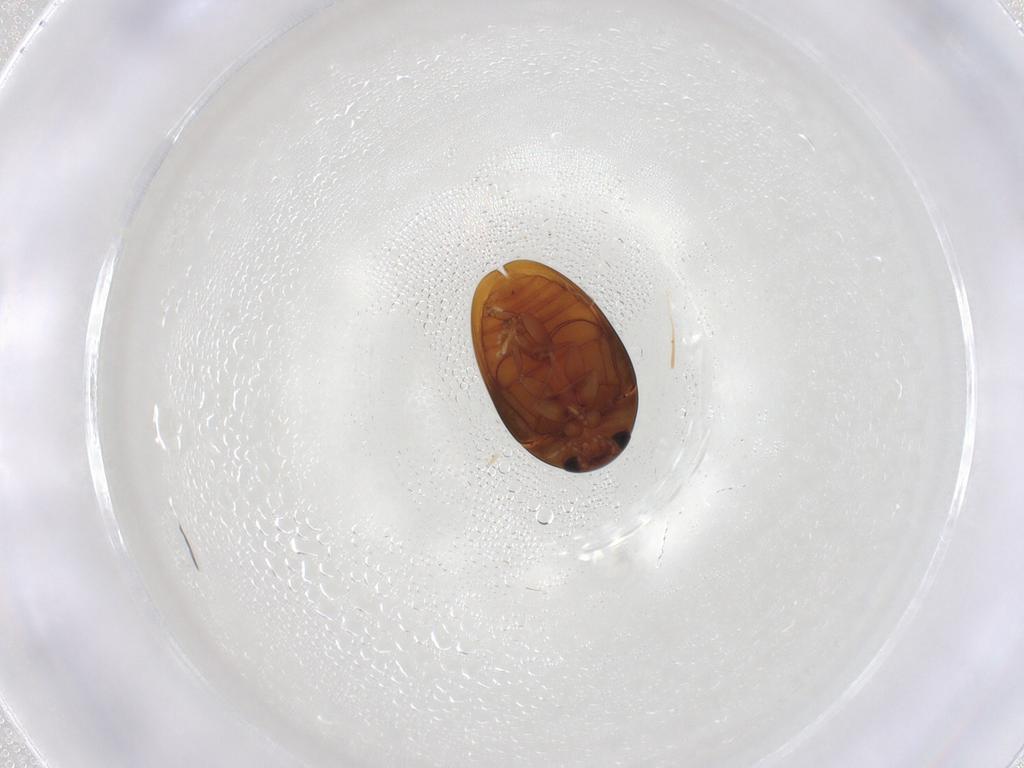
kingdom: Animalia
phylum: Arthropoda
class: Insecta
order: Coleoptera
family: Phalacridae
